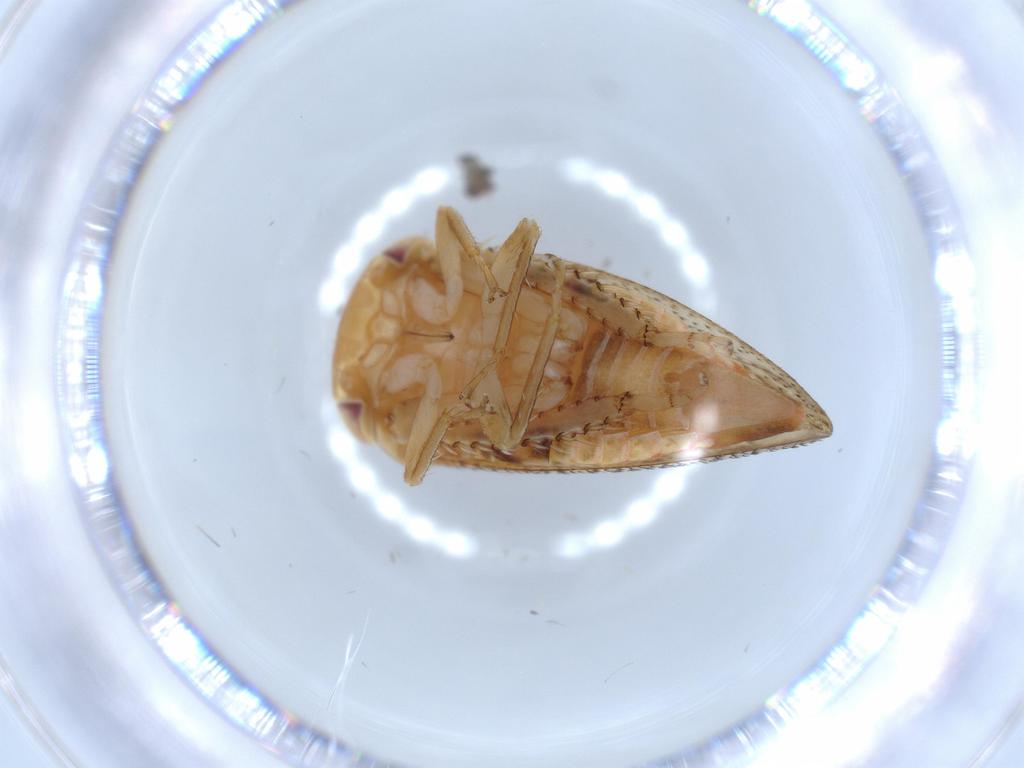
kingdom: Animalia
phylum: Arthropoda
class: Insecta
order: Hemiptera
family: Cicadellidae
